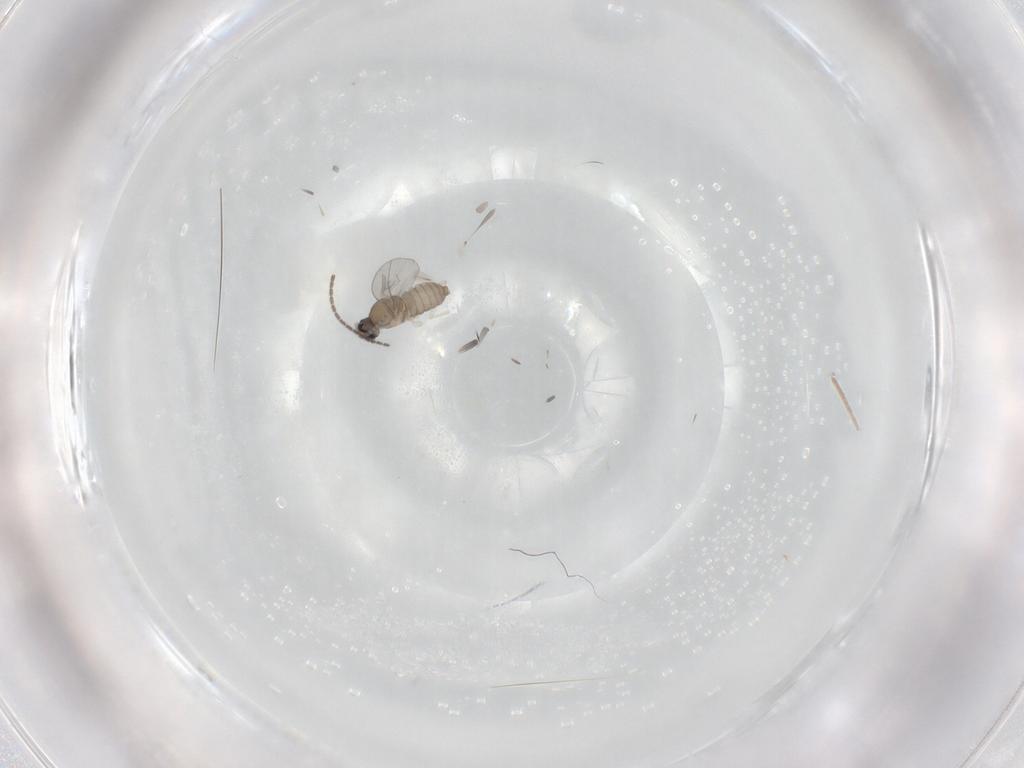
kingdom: Animalia
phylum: Arthropoda
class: Insecta
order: Diptera
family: Cecidomyiidae
